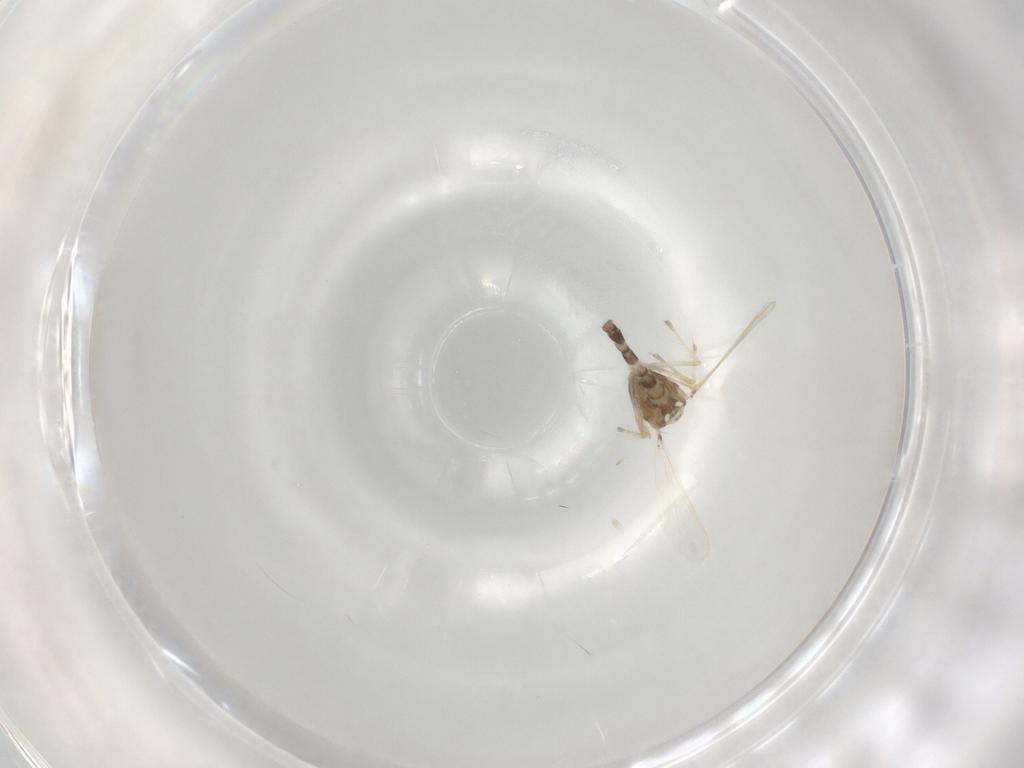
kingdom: Animalia
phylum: Arthropoda
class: Insecta
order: Diptera
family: Chironomidae
